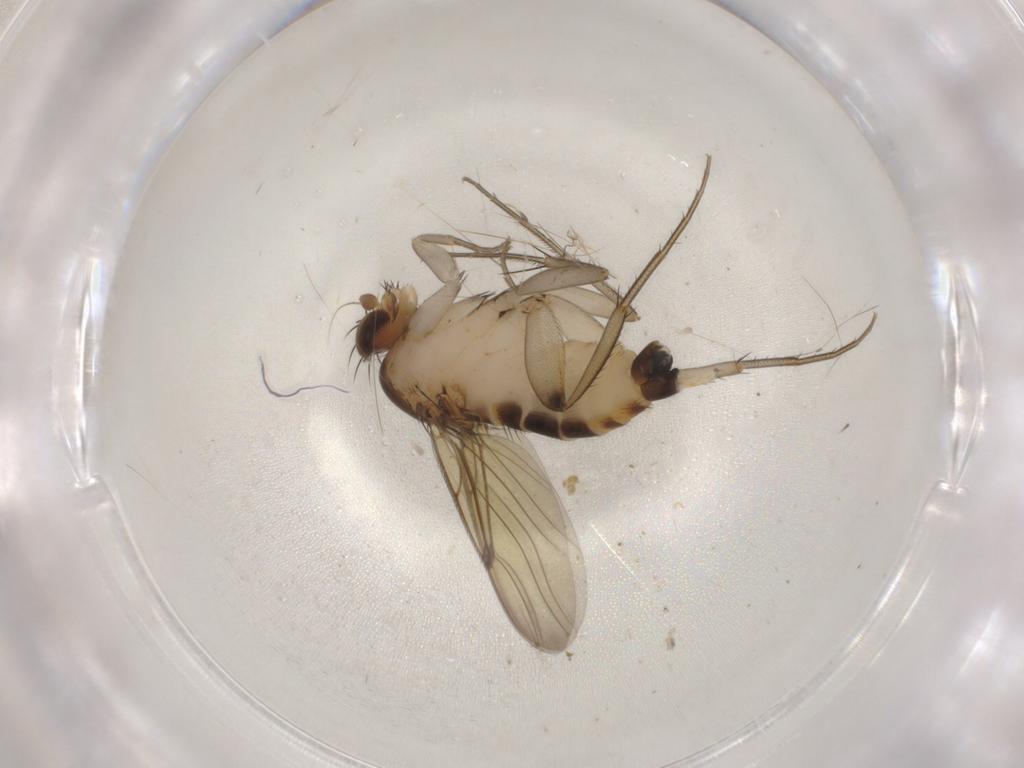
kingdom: Animalia
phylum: Arthropoda
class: Insecta
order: Diptera
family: Phoridae
